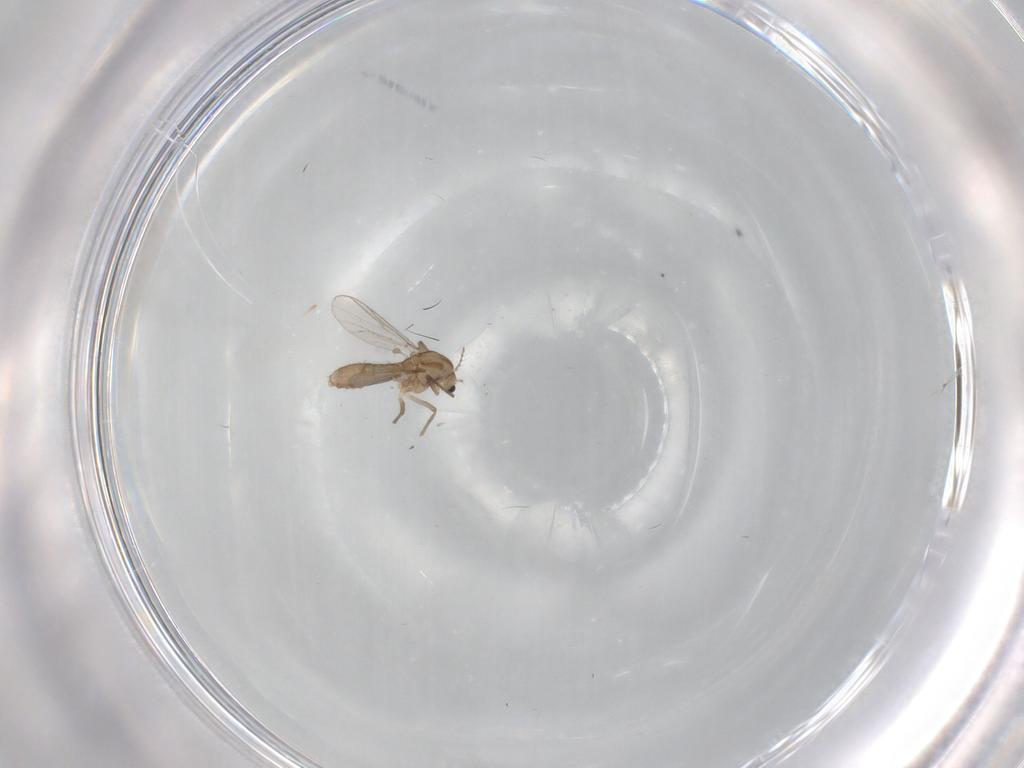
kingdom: Animalia
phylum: Arthropoda
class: Insecta
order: Diptera
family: Chironomidae
